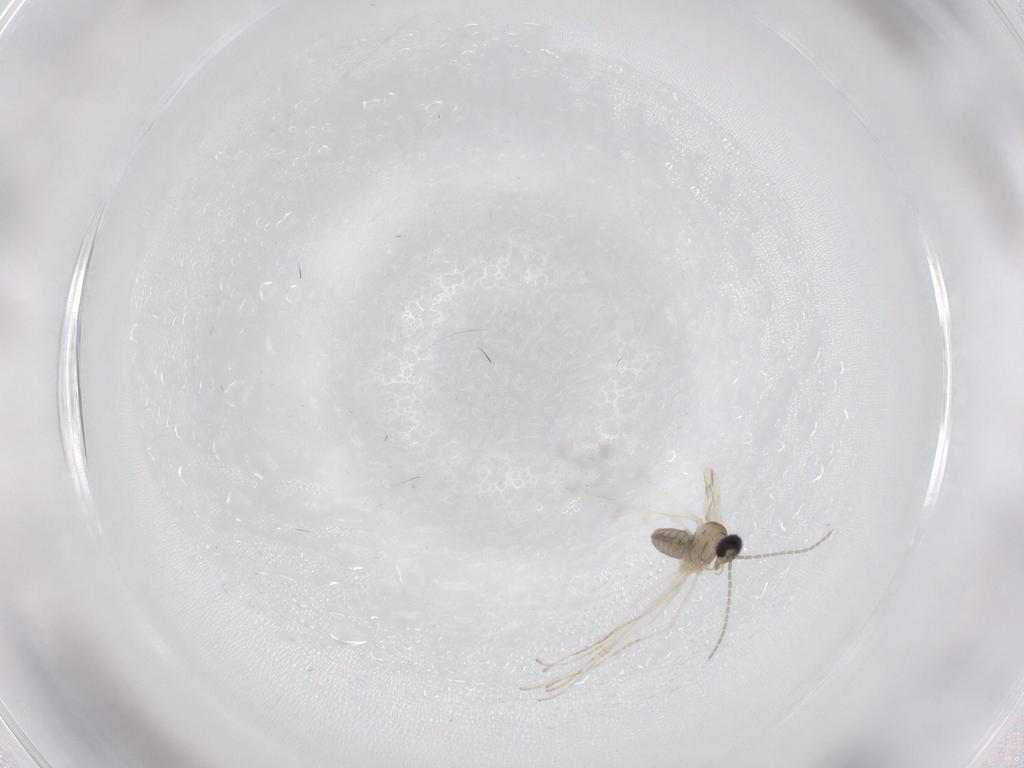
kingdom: Animalia
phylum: Arthropoda
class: Insecta
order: Diptera
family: Cecidomyiidae
